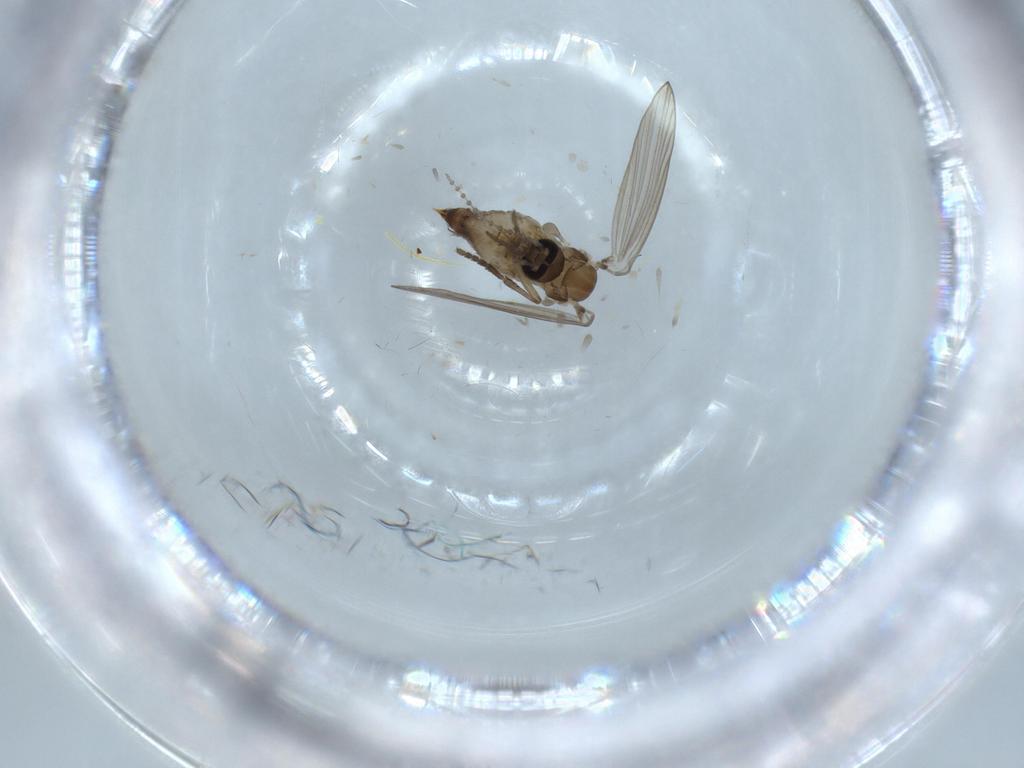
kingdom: Animalia
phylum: Arthropoda
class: Insecta
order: Diptera
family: Psychodidae
